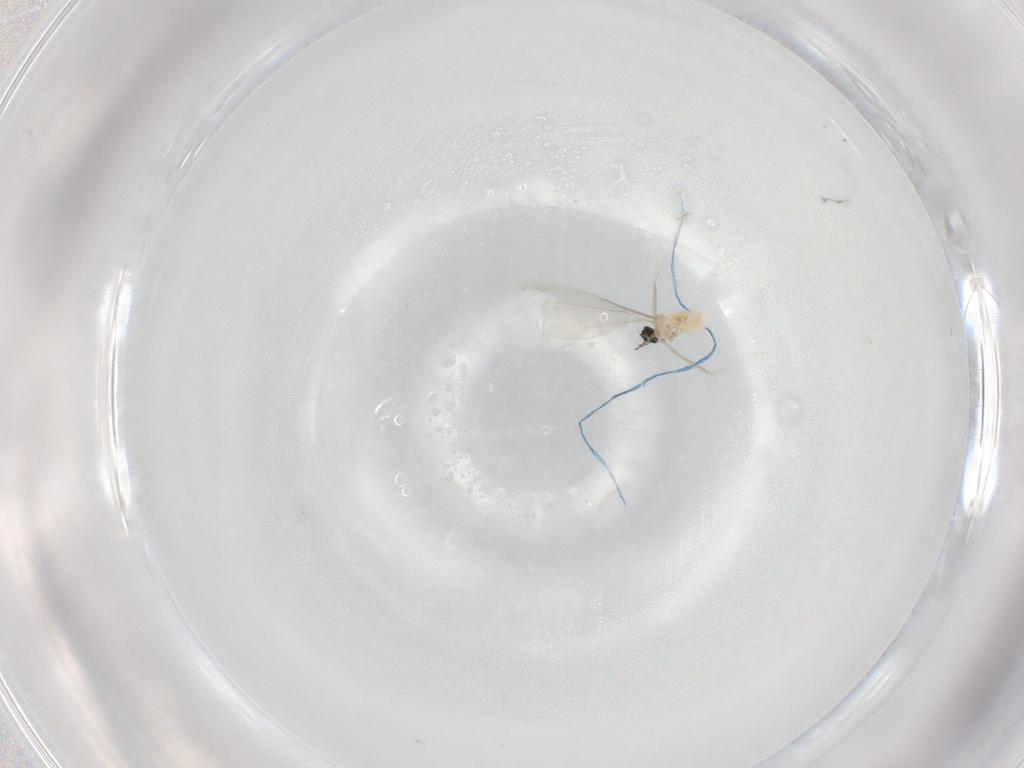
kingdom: Animalia
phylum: Arthropoda
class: Insecta
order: Diptera
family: Cecidomyiidae
